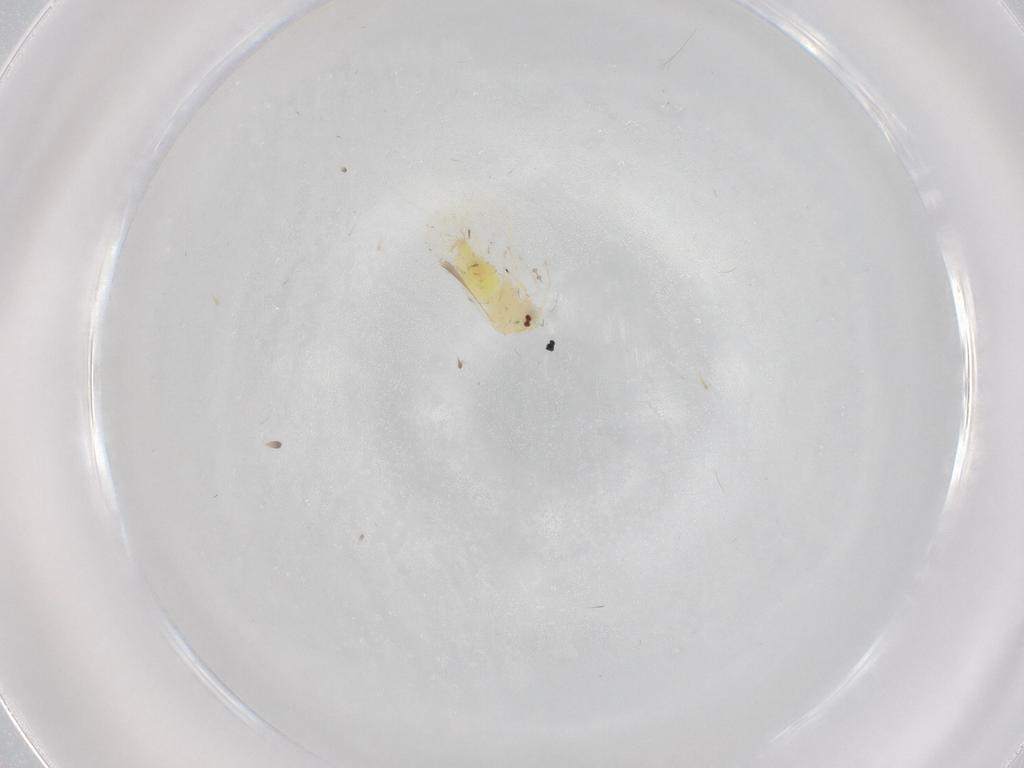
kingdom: Animalia
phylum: Arthropoda
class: Insecta
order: Hemiptera
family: Aleyrodidae
